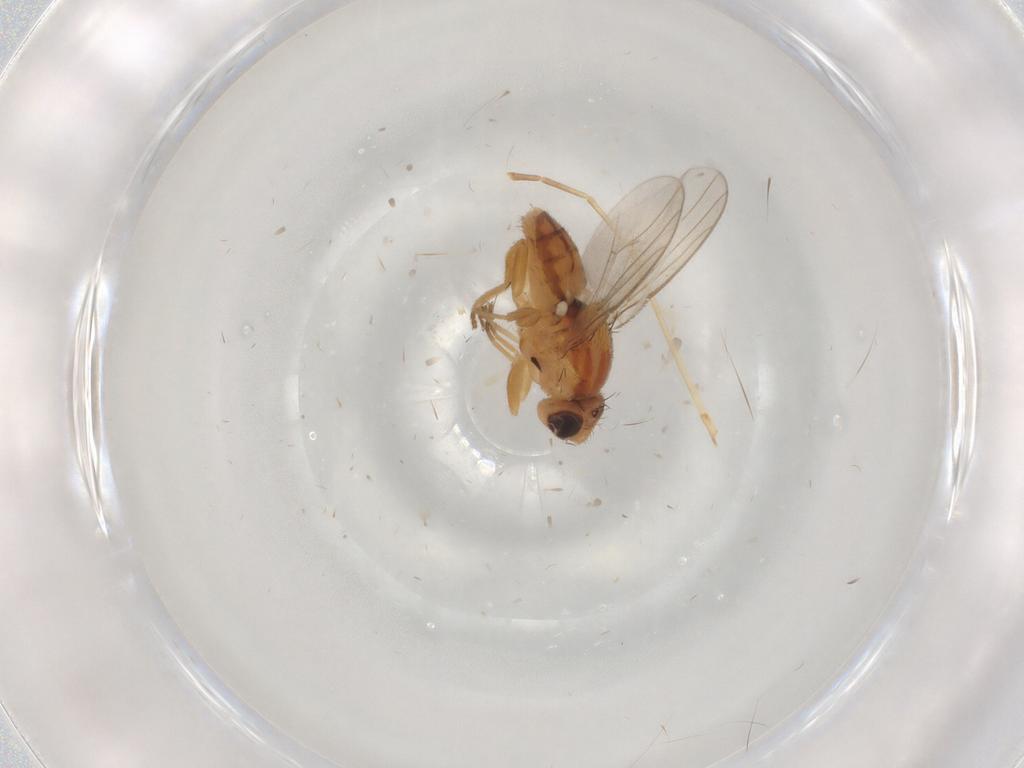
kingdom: Animalia
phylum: Arthropoda
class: Insecta
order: Diptera
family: Chloropidae
